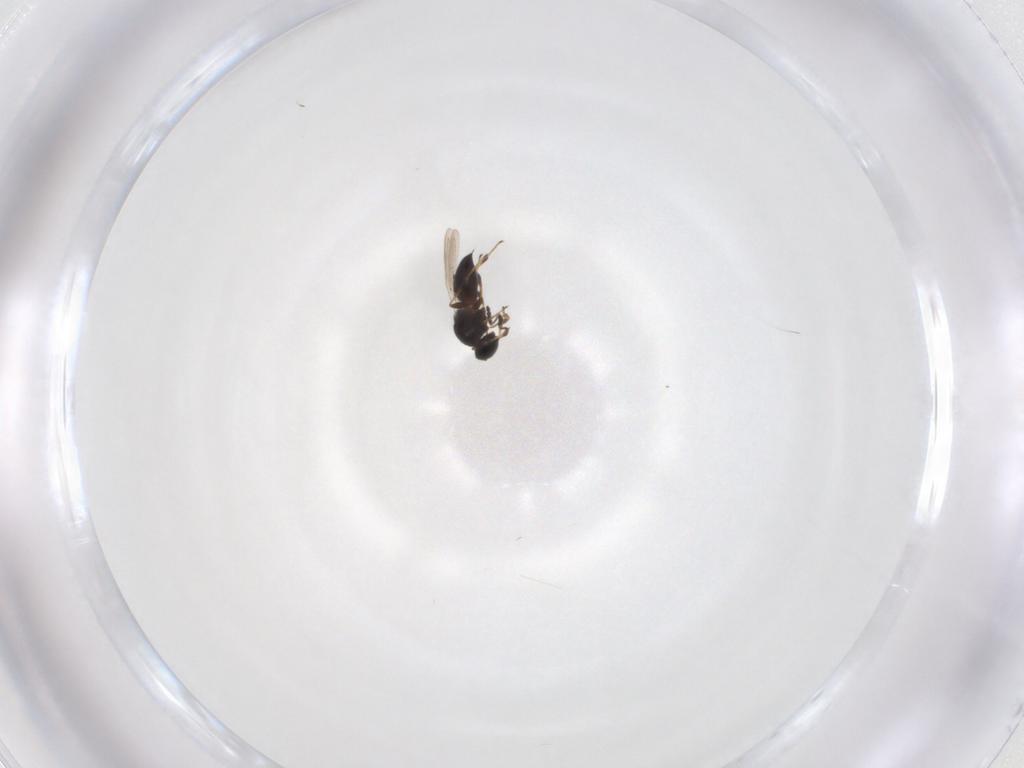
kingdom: Animalia
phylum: Arthropoda
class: Insecta
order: Hymenoptera
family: Platygastridae
